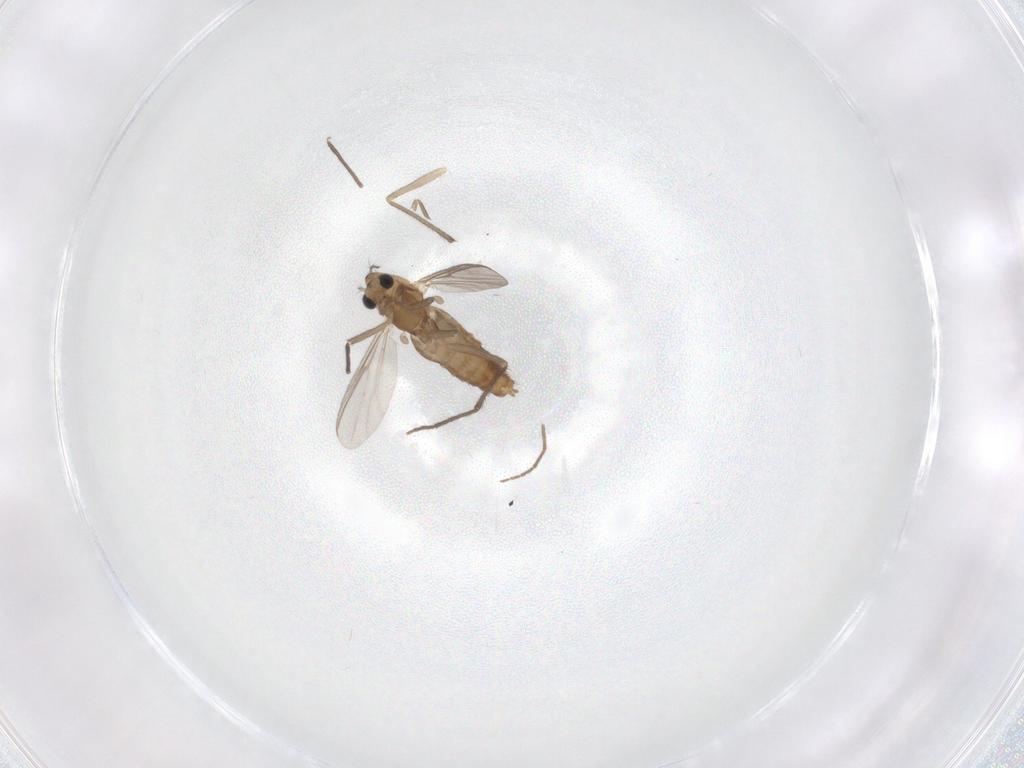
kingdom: Animalia
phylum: Arthropoda
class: Insecta
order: Diptera
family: Chironomidae
